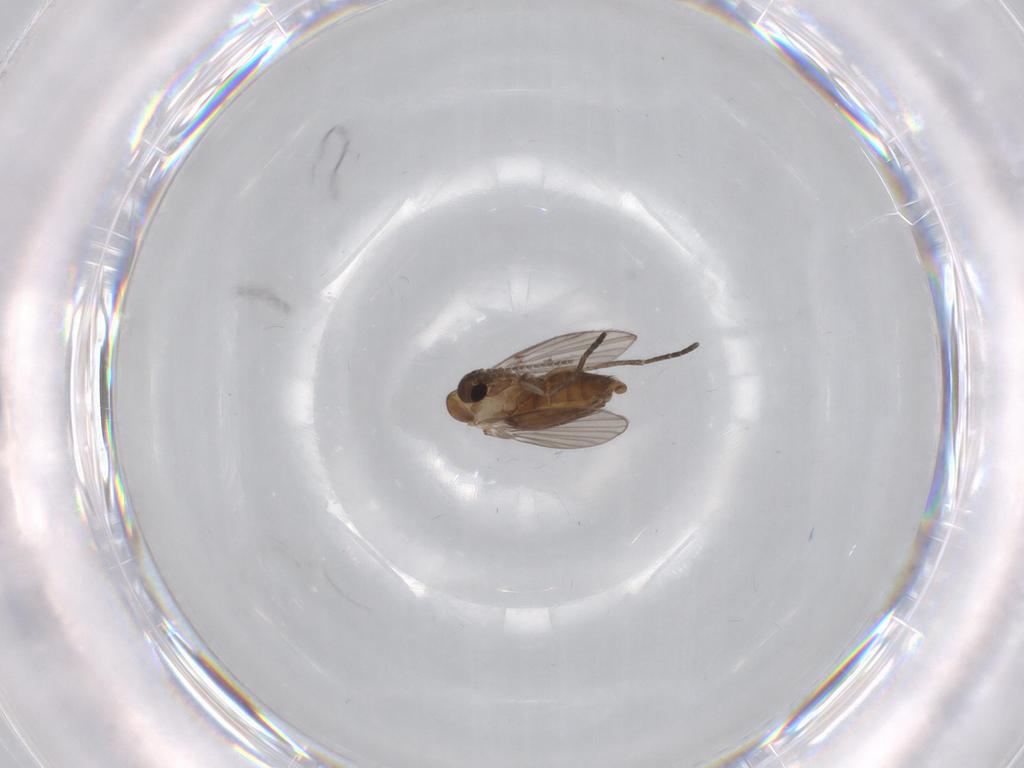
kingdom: Animalia
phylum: Arthropoda
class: Insecta
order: Diptera
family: Psychodidae
